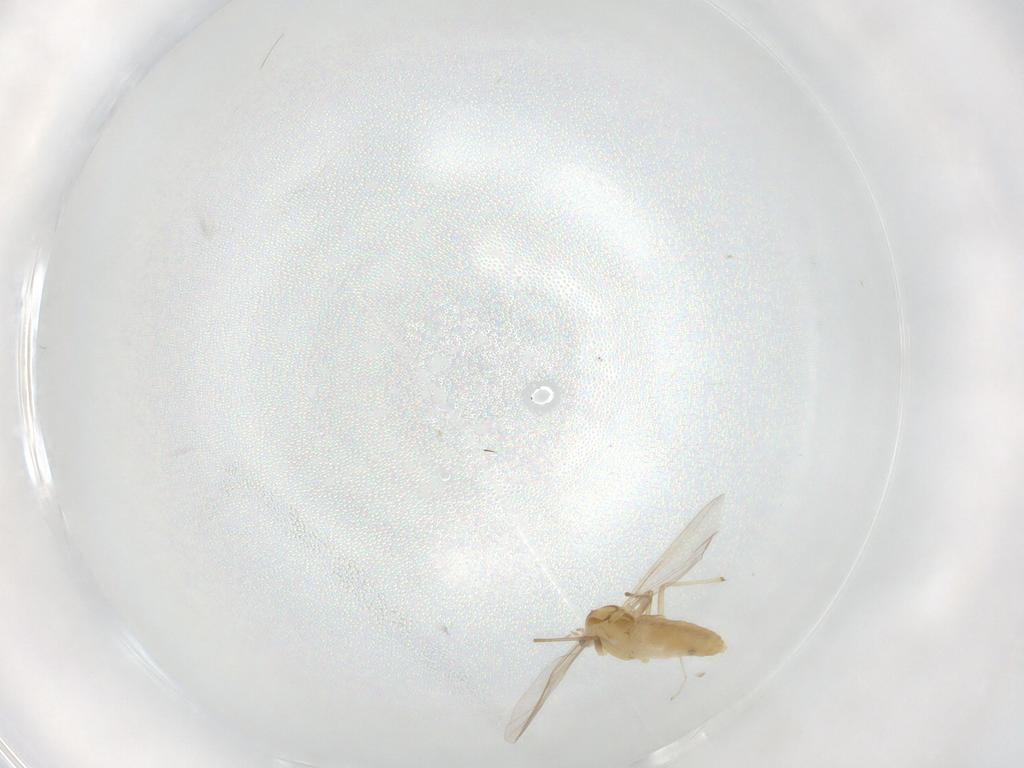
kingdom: Animalia
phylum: Arthropoda
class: Insecta
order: Diptera
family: Chironomidae
